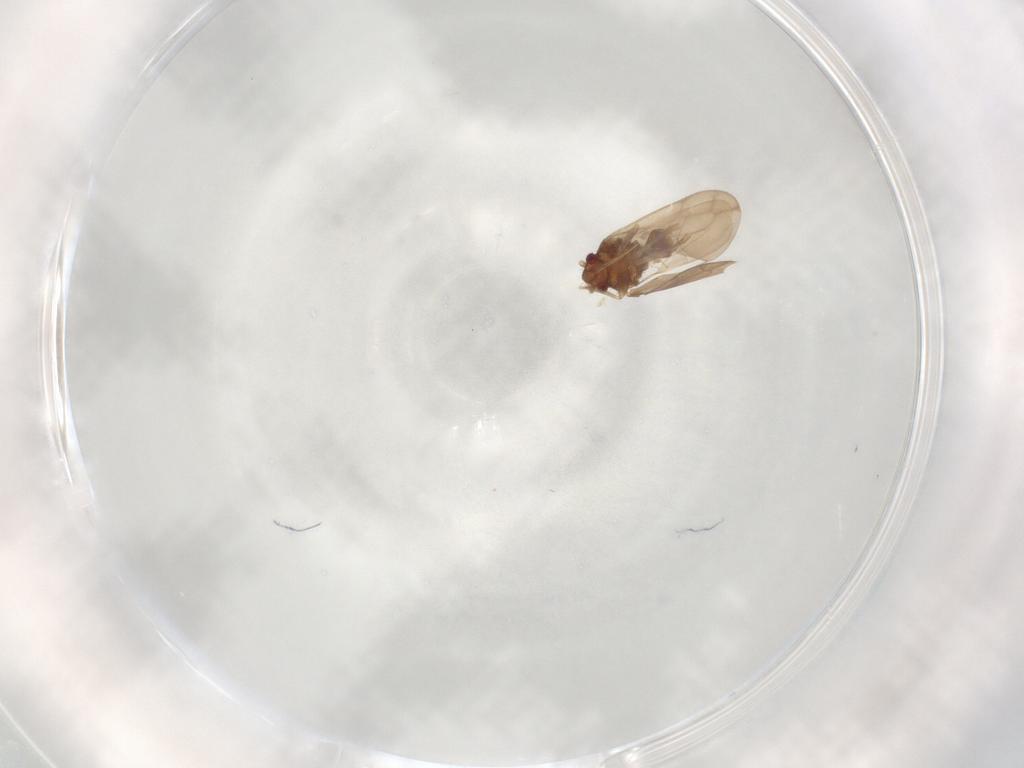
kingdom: Animalia
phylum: Arthropoda
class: Insecta
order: Hemiptera
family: Ceratocombidae
